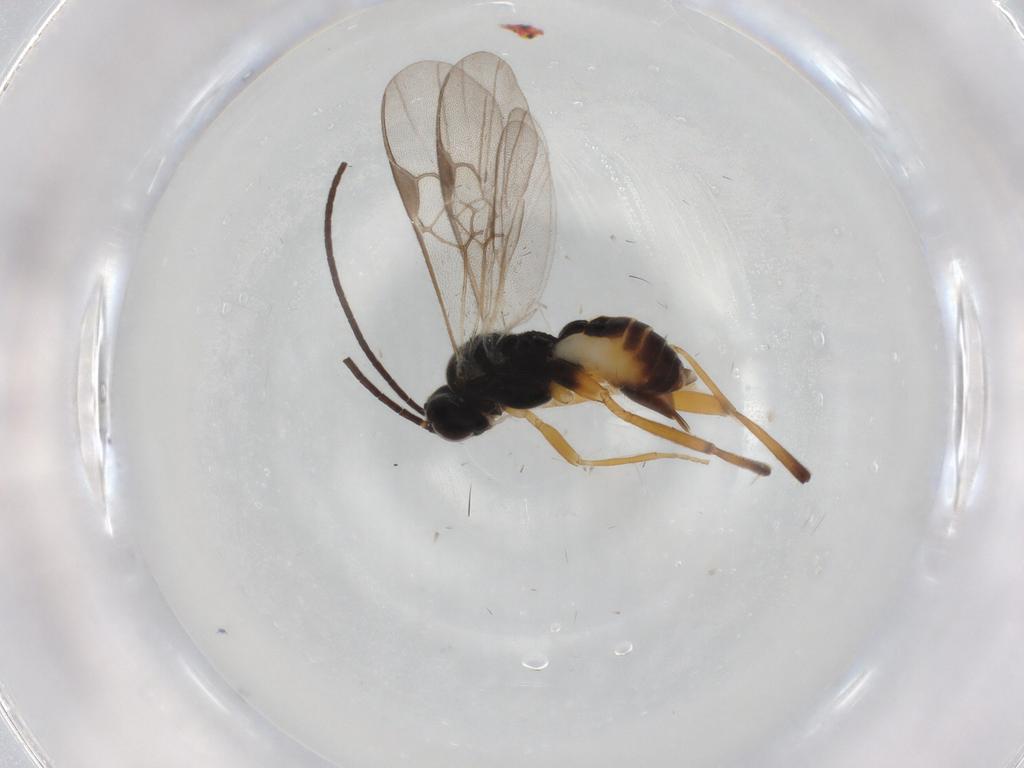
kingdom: Animalia
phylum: Arthropoda
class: Insecta
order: Hymenoptera
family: Braconidae
